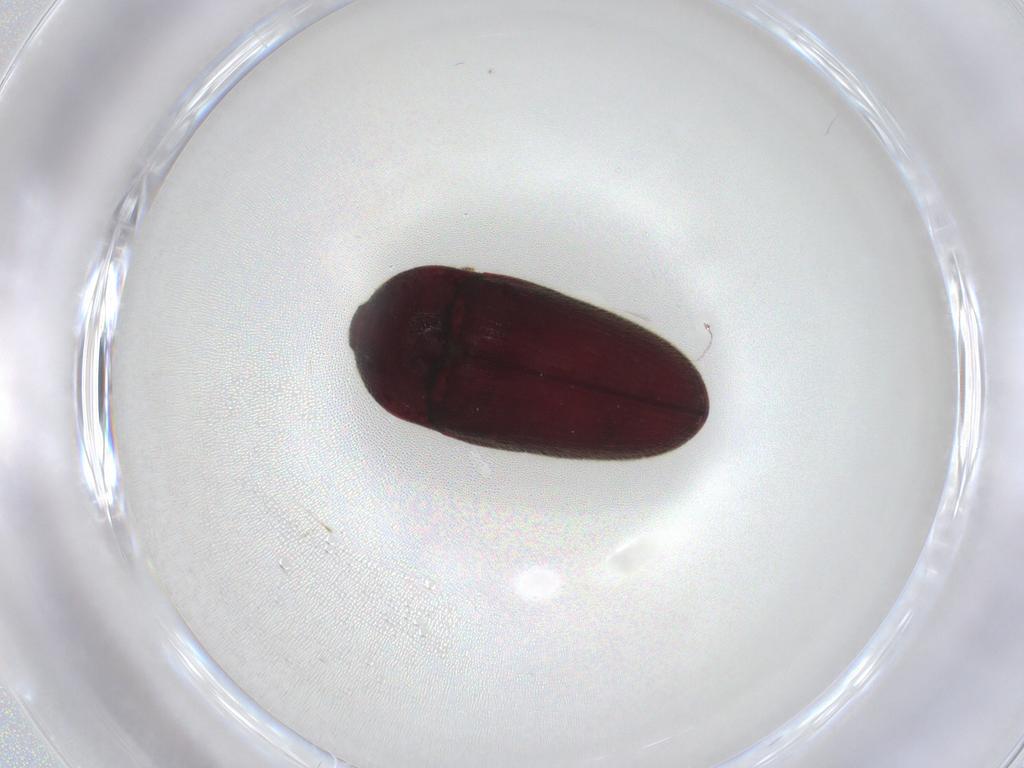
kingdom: Animalia
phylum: Arthropoda
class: Insecta
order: Coleoptera
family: Throscidae
